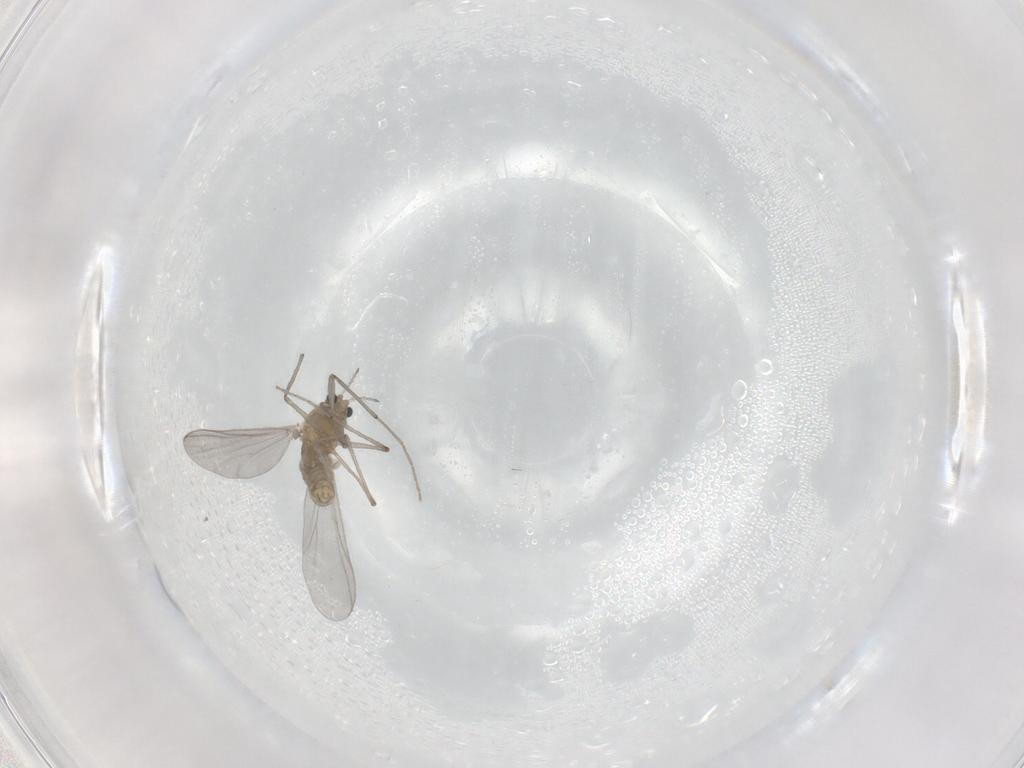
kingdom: Animalia
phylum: Arthropoda
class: Insecta
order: Diptera
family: Chironomidae
